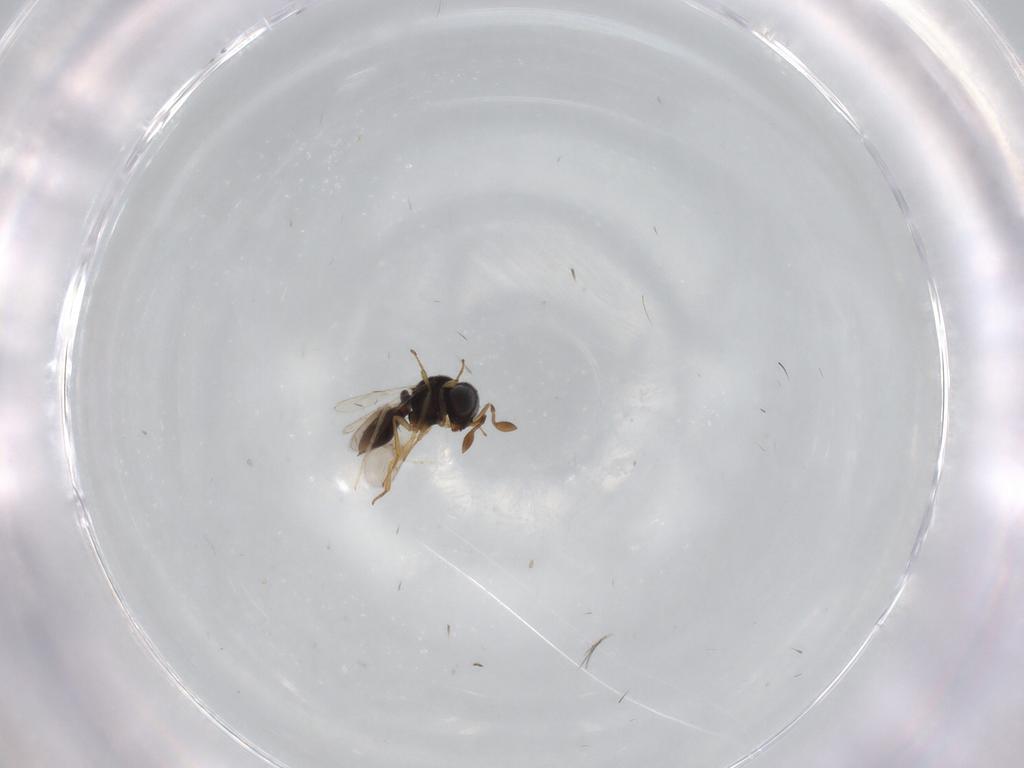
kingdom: Animalia
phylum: Arthropoda
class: Insecta
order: Hymenoptera
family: Scelionidae
